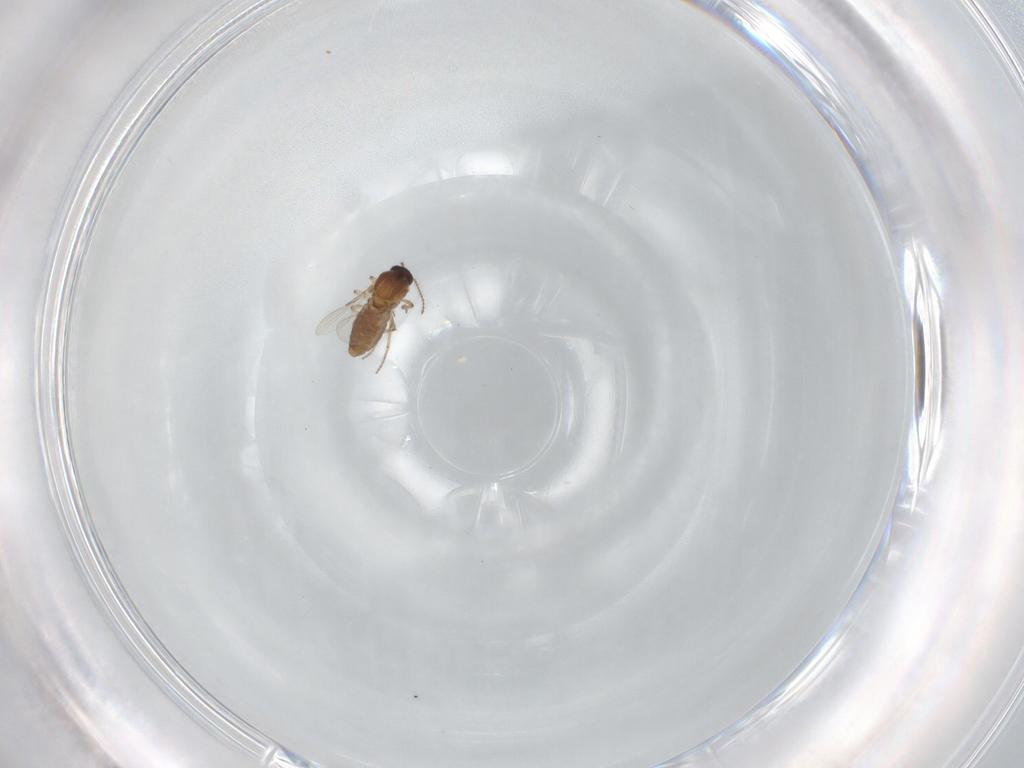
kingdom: Animalia
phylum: Arthropoda
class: Insecta
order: Diptera
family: Ceratopogonidae
